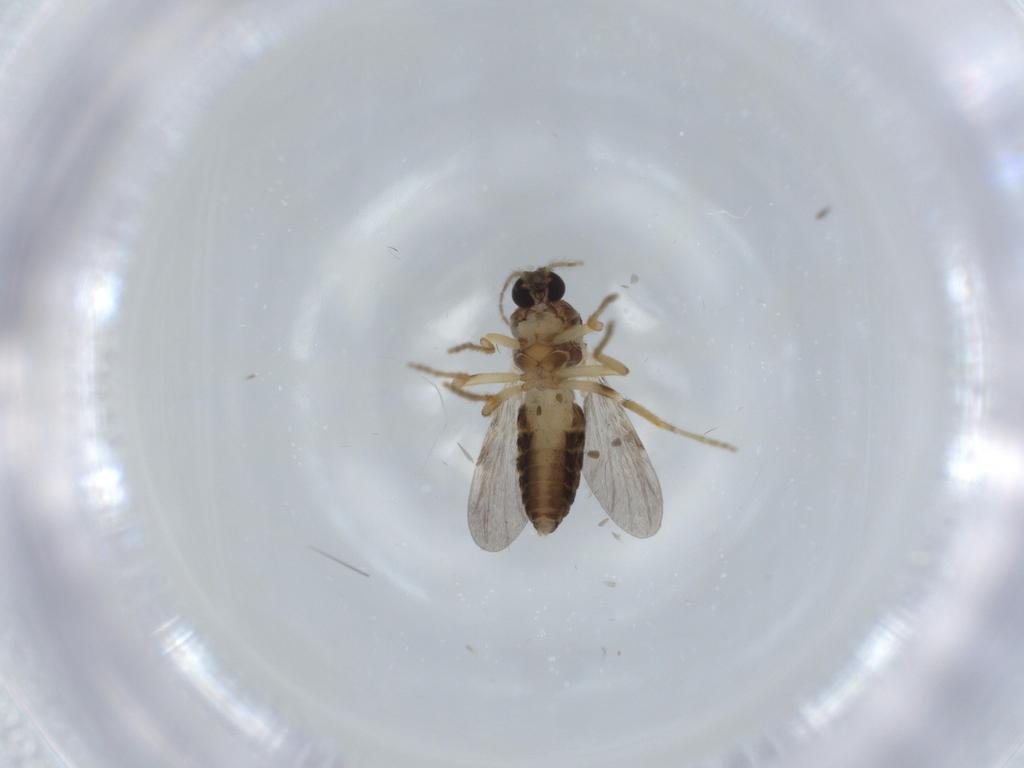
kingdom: Animalia
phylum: Arthropoda
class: Insecta
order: Diptera
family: Ceratopogonidae
